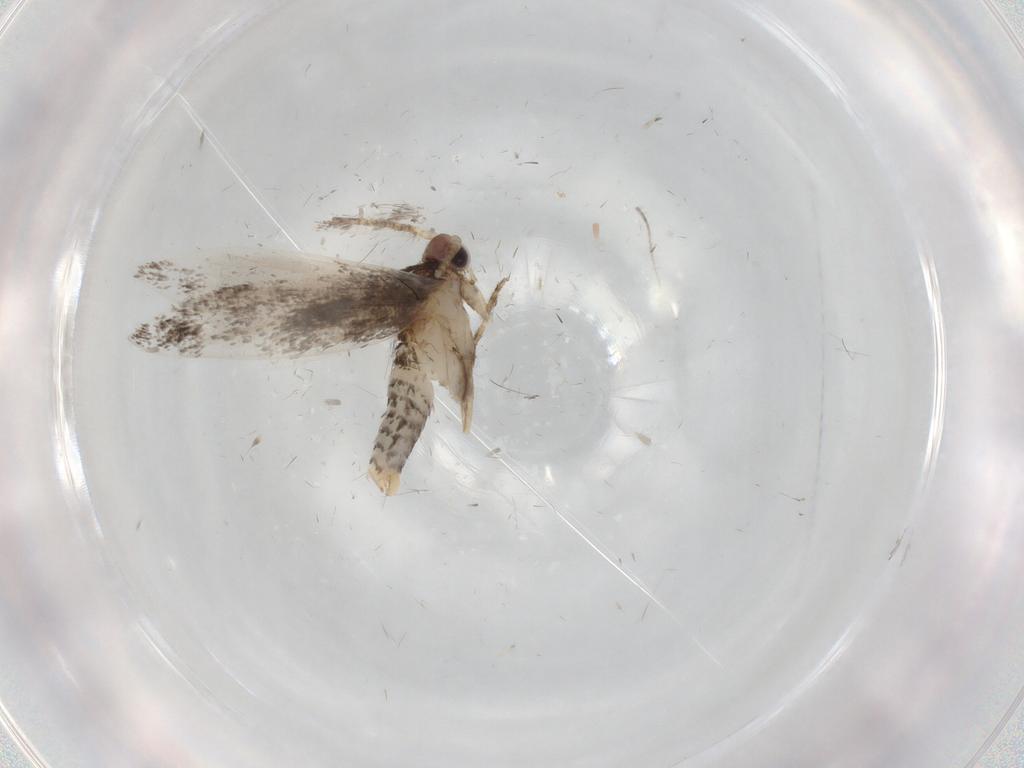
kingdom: Animalia
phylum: Arthropoda
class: Insecta
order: Lepidoptera
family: Tineidae
